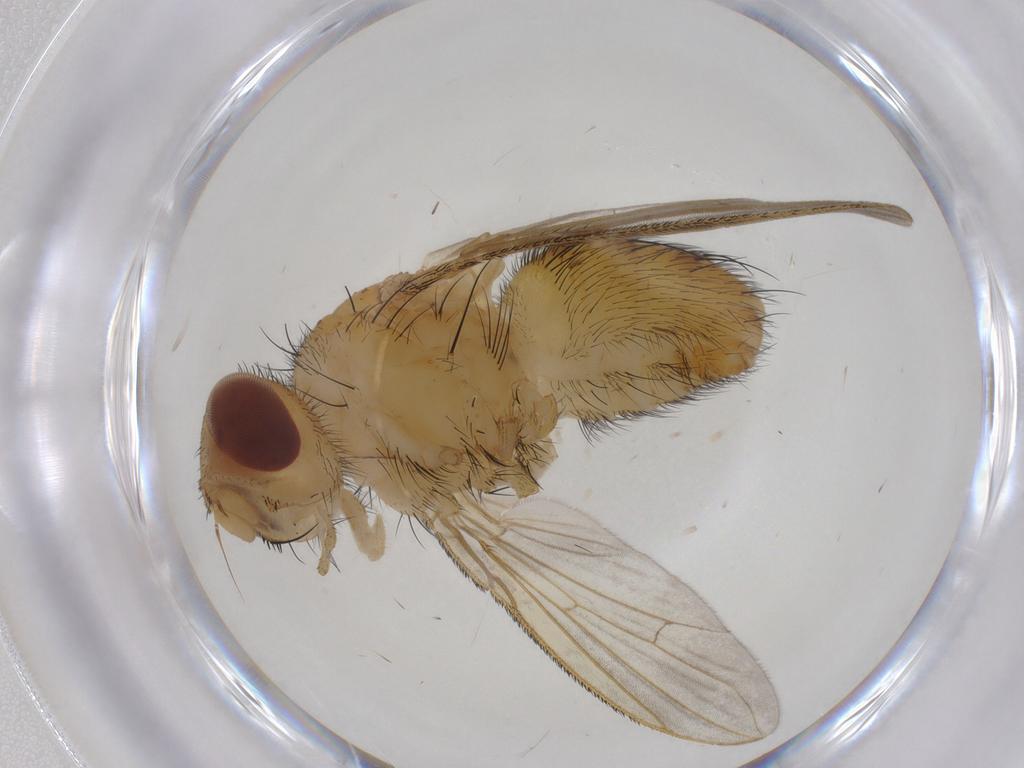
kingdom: Animalia
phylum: Arthropoda
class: Insecta
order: Diptera
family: Tachinidae
